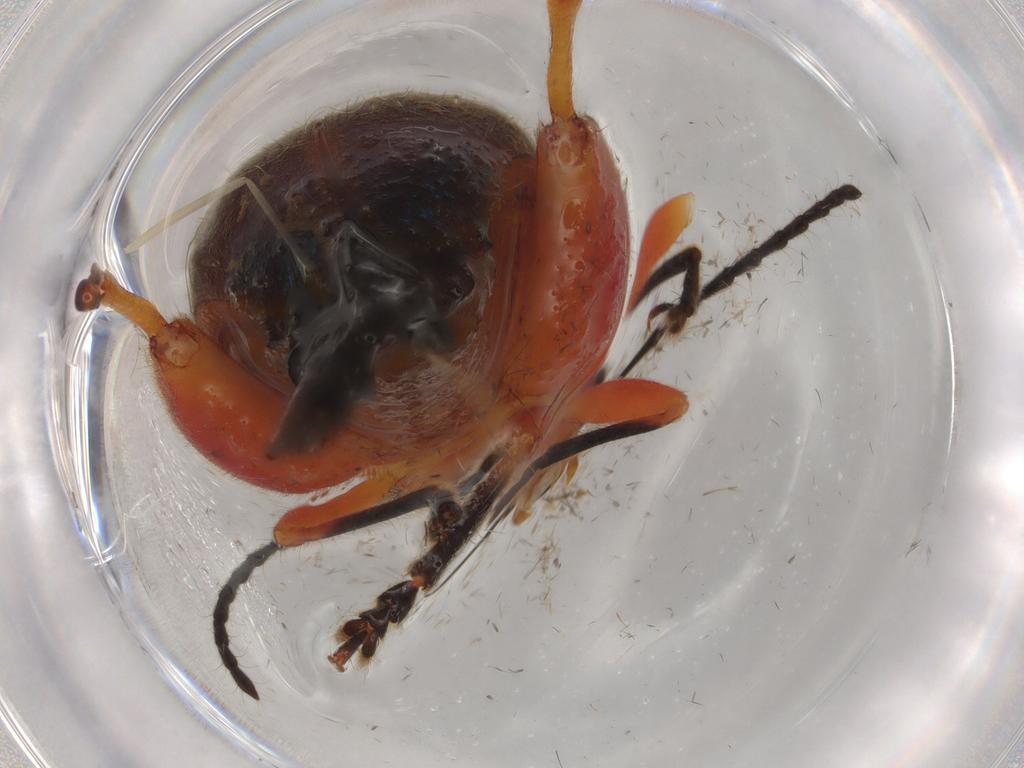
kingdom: Animalia
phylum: Arthropoda
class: Insecta
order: Coleoptera
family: Chrysomelidae
